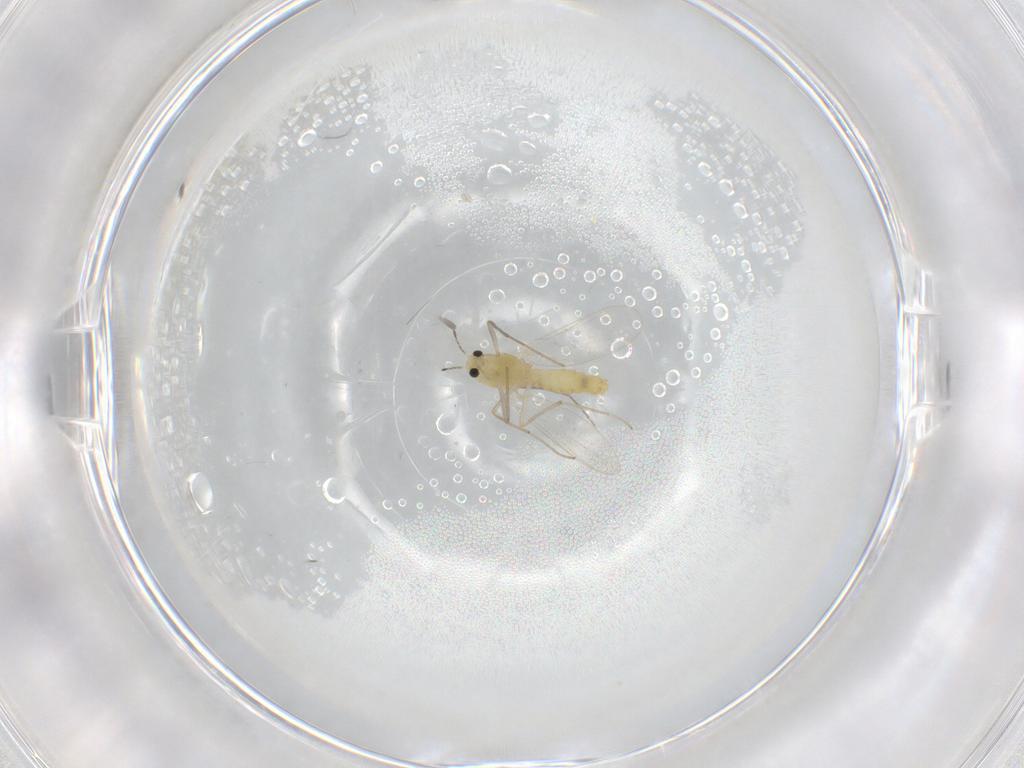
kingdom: Animalia
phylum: Arthropoda
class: Insecta
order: Diptera
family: Chironomidae
